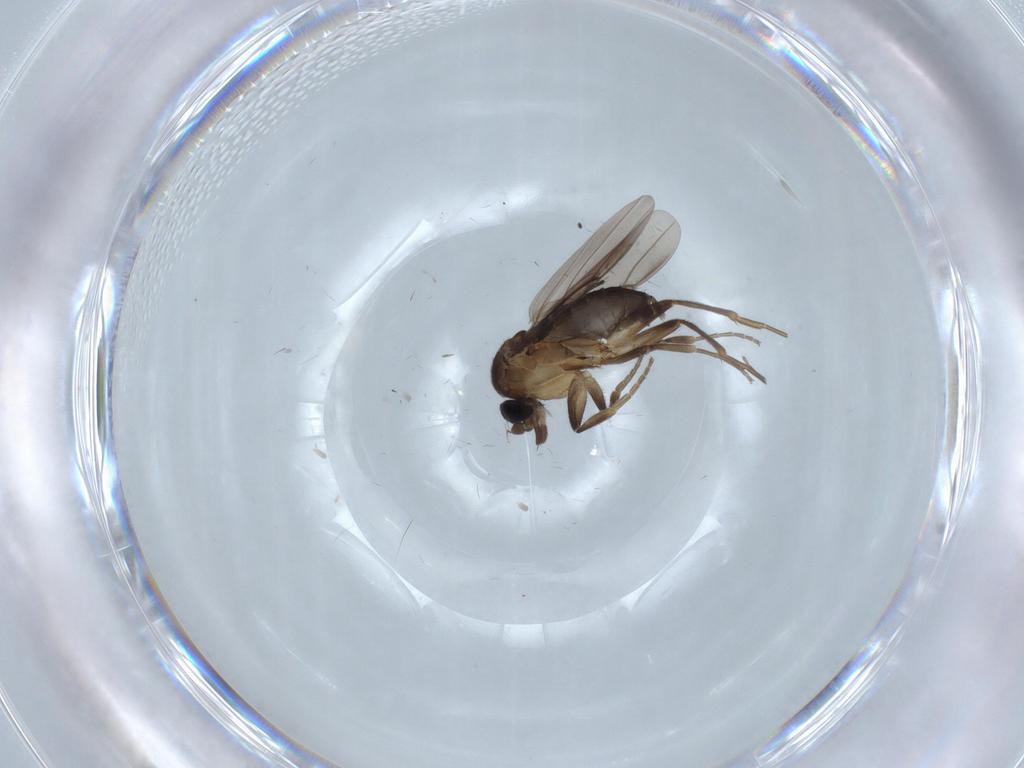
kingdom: Animalia
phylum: Arthropoda
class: Insecta
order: Diptera
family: Phoridae
